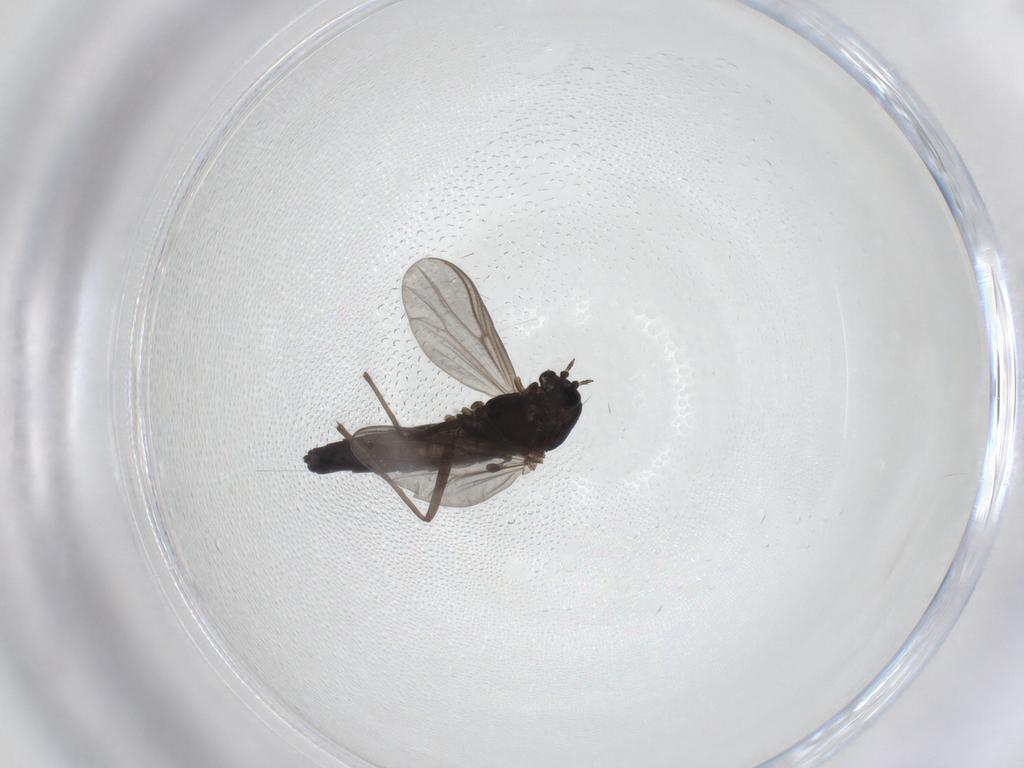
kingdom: Animalia
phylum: Arthropoda
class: Insecta
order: Diptera
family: Chironomidae
